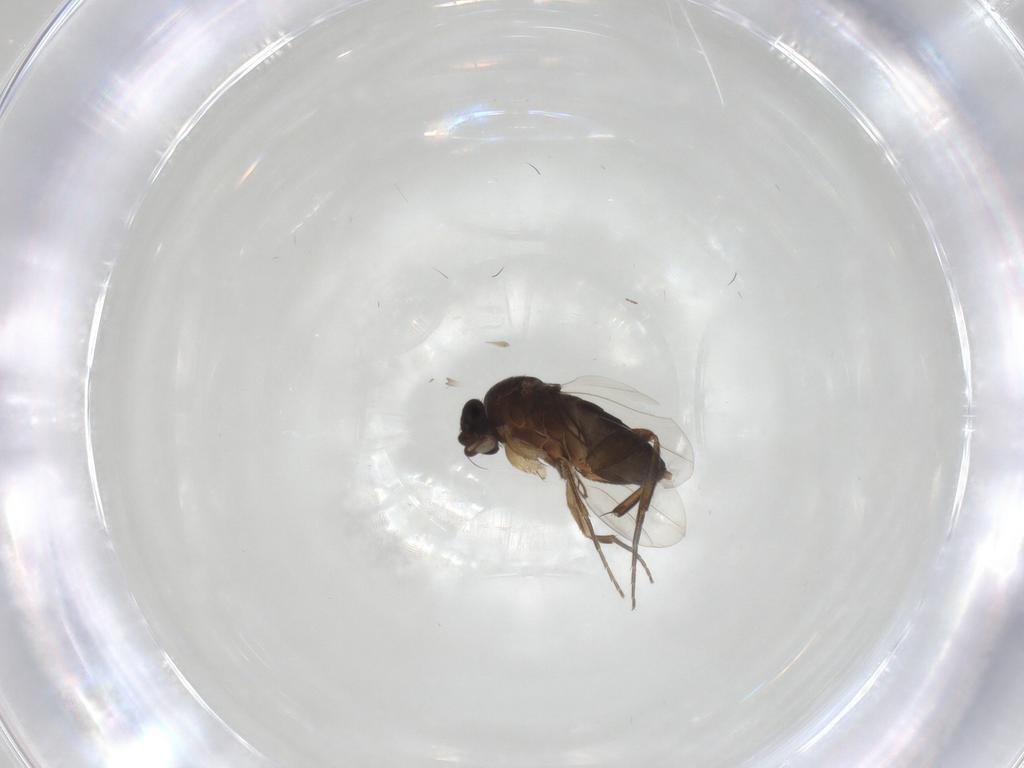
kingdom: Animalia
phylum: Arthropoda
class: Insecta
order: Diptera
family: Phoridae
